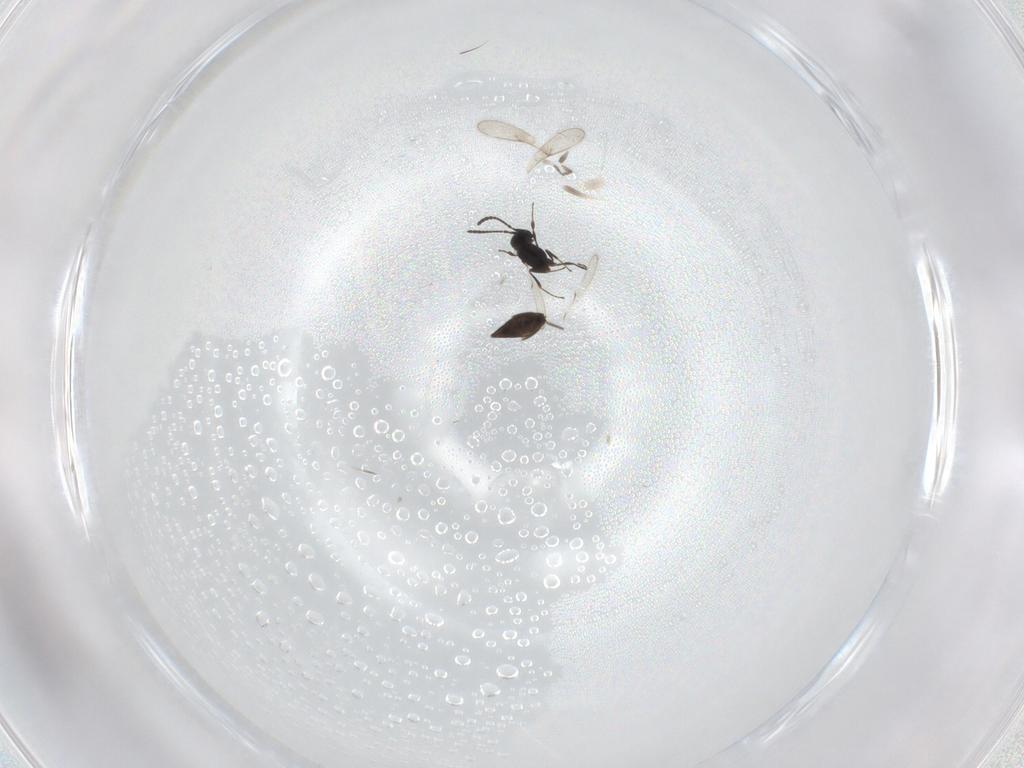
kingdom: Animalia
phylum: Arthropoda
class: Insecta
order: Hymenoptera
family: Scelionidae
